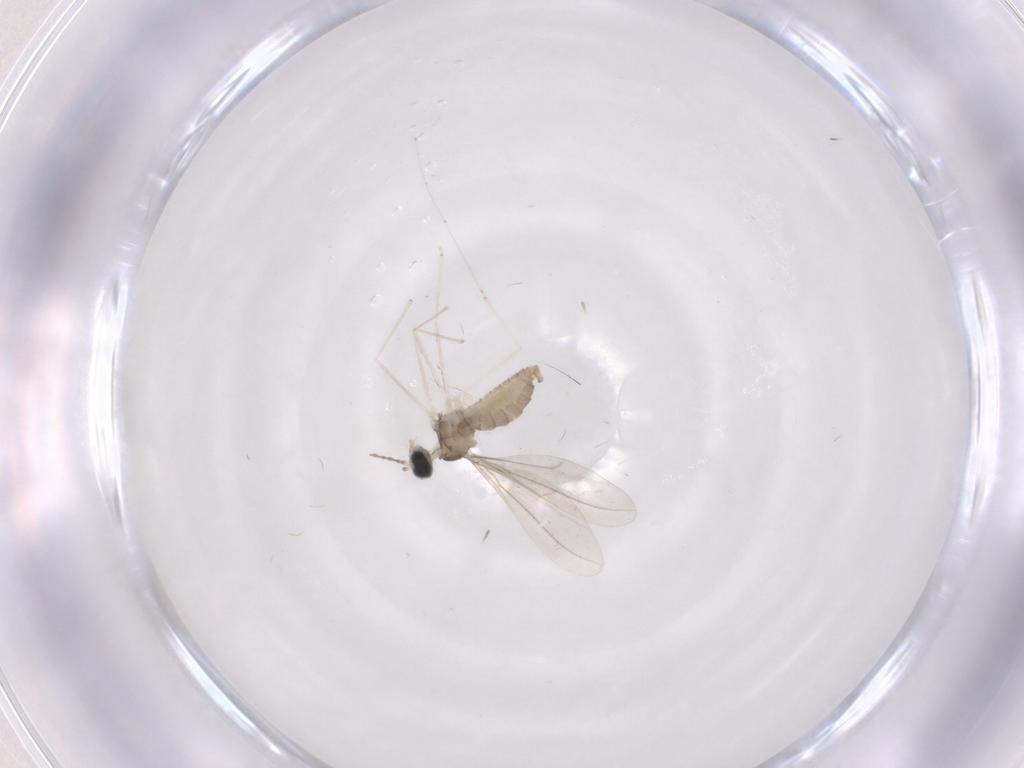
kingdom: Animalia
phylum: Arthropoda
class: Insecta
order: Diptera
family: Cecidomyiidae
